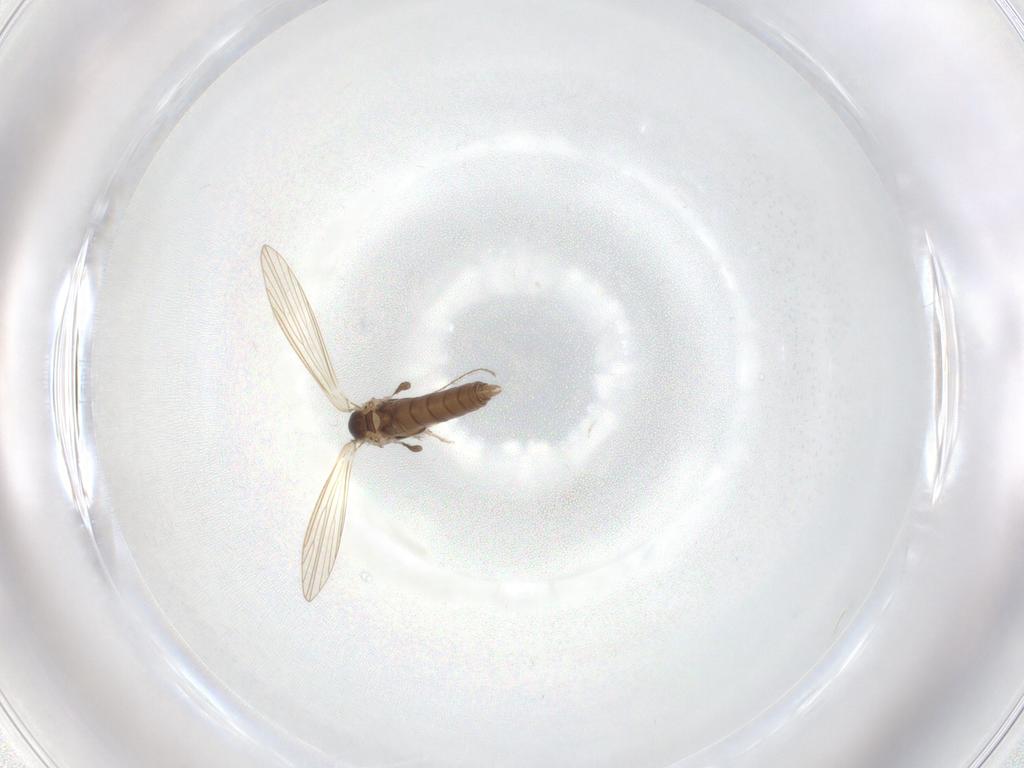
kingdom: Animalia
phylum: Arthropoda
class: Insecta
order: Diptera
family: Psychodidae
